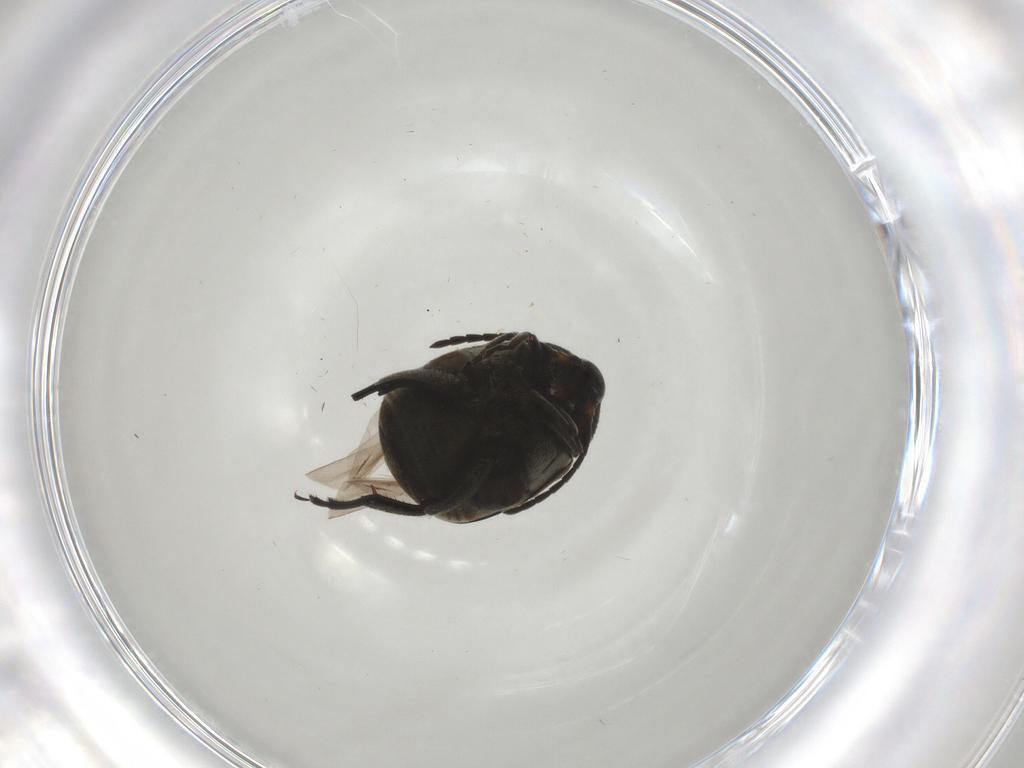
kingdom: Animalia
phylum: Arthropoda
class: Insecta
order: Coleoptera
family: Chrysomelidae
